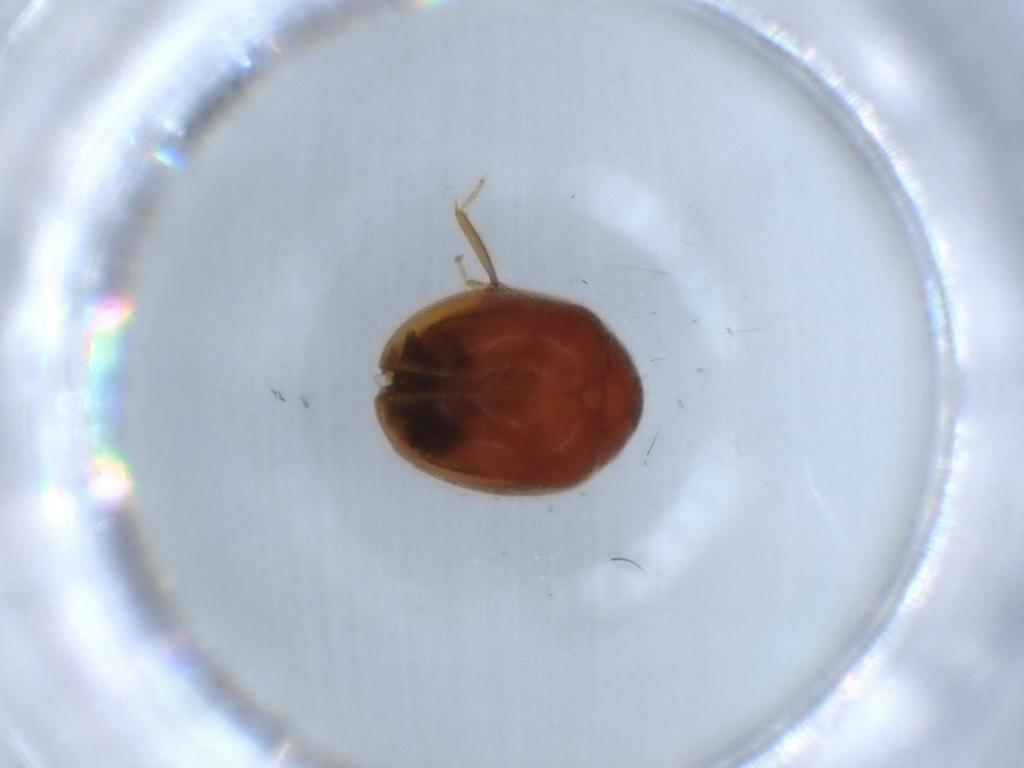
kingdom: Animalia
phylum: Arthropoda
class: Insecta
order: Coleoptera
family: Scirtidae
